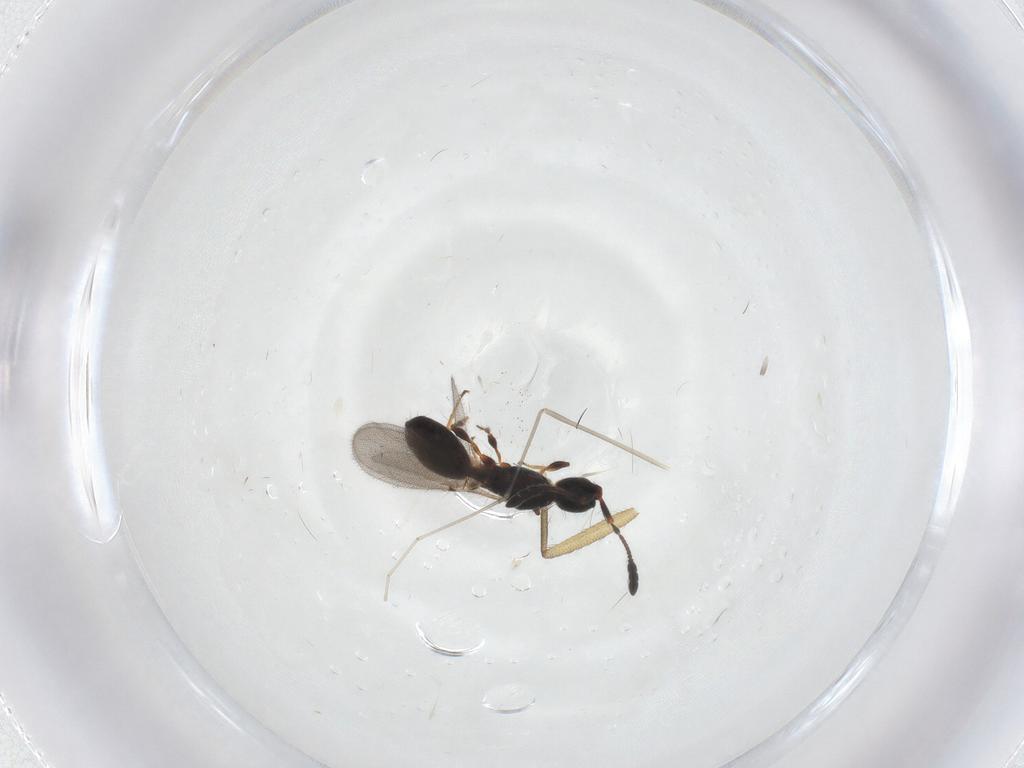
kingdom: Animalia
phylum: Arthropoda
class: Insecta
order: Hymenoptera
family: Diapriidae
